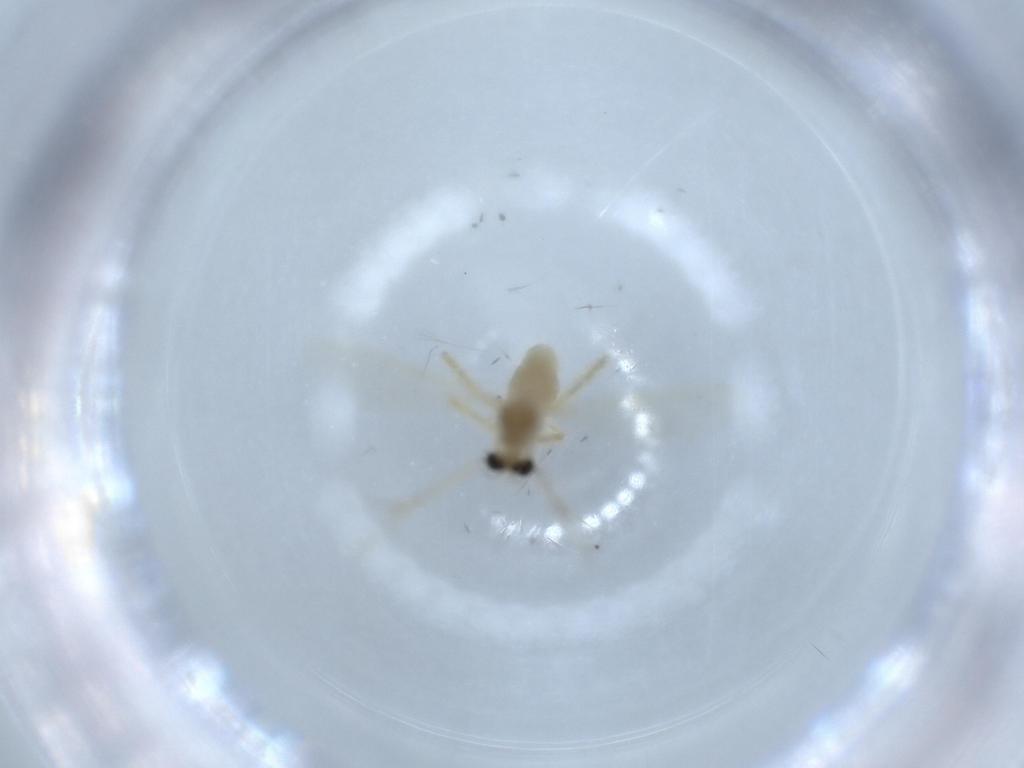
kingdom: Animalia
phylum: Arthropoda
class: Insecta
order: Diptera
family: Chironomidae
